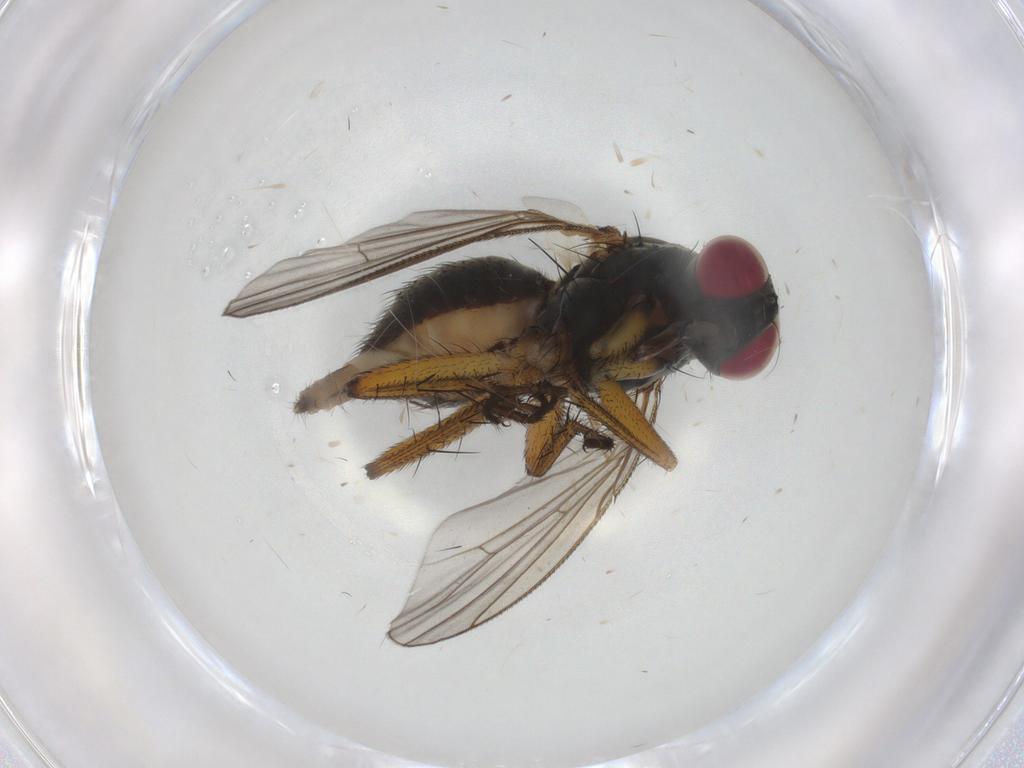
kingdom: Animalia
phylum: Arthropoda
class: Insecta
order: Diptera
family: Muscidae
